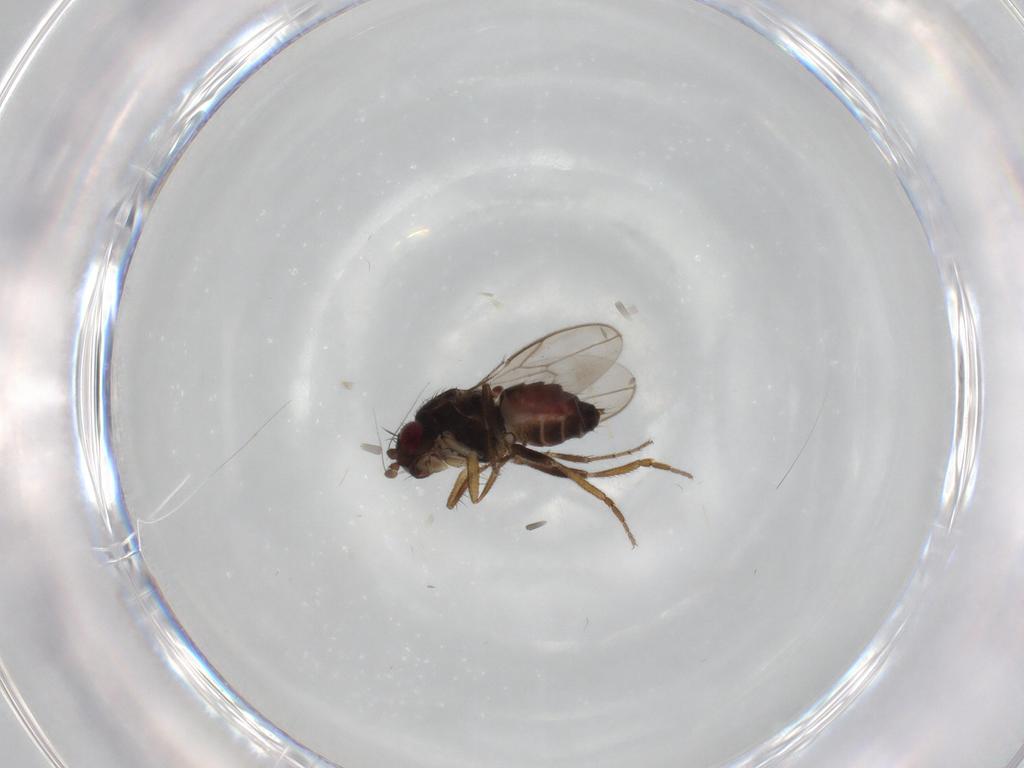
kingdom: Animalia
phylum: Arthropoda
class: Insecta
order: Diptera
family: Sphaeroceridae
